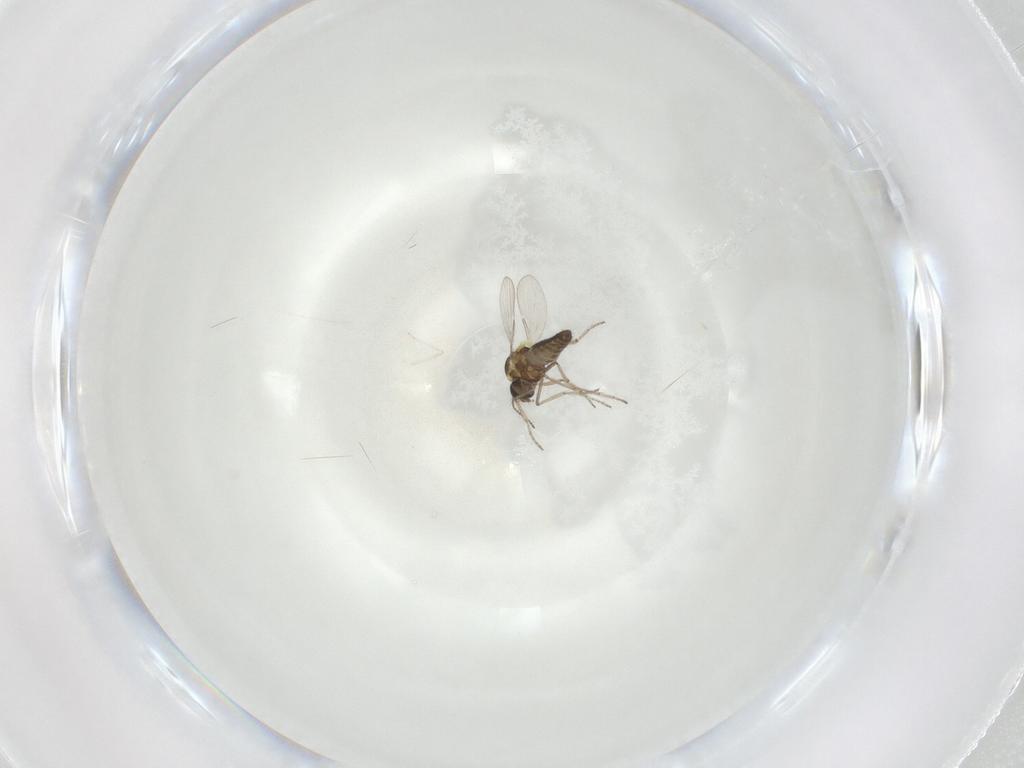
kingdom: Animalia
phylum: Arthropoda
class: Insecta
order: Diptera
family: Ceratopogonidae
